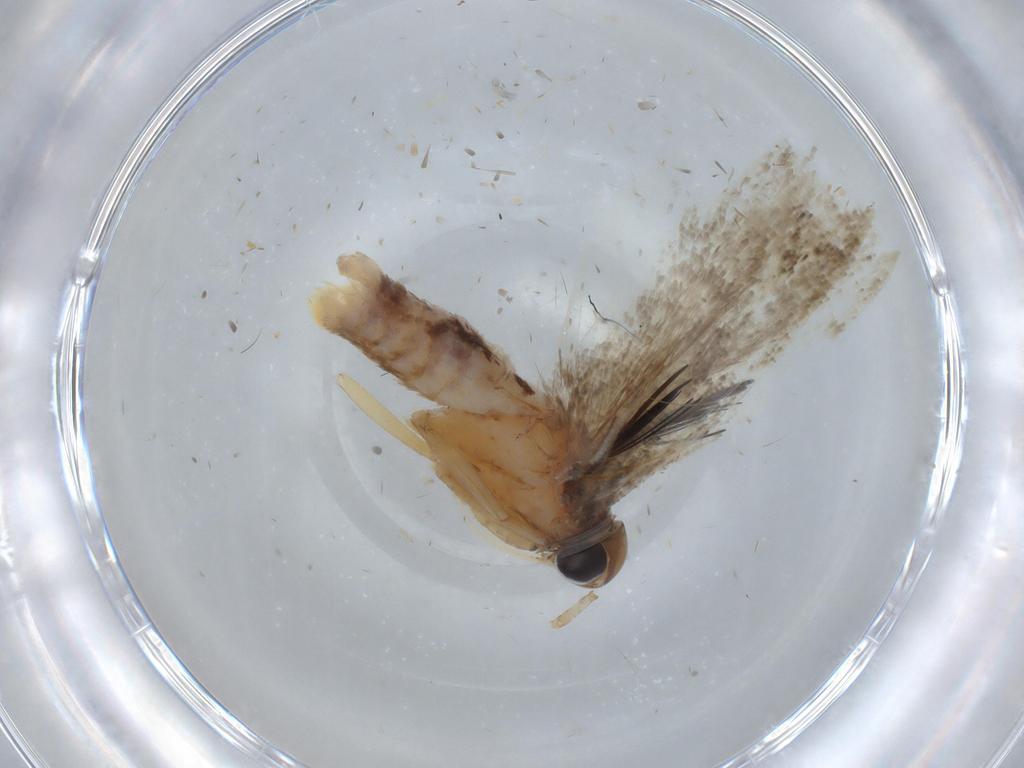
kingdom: Animalia
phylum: Arthropoda
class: Insecta
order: Lepidoptera
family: Gelechiidae
